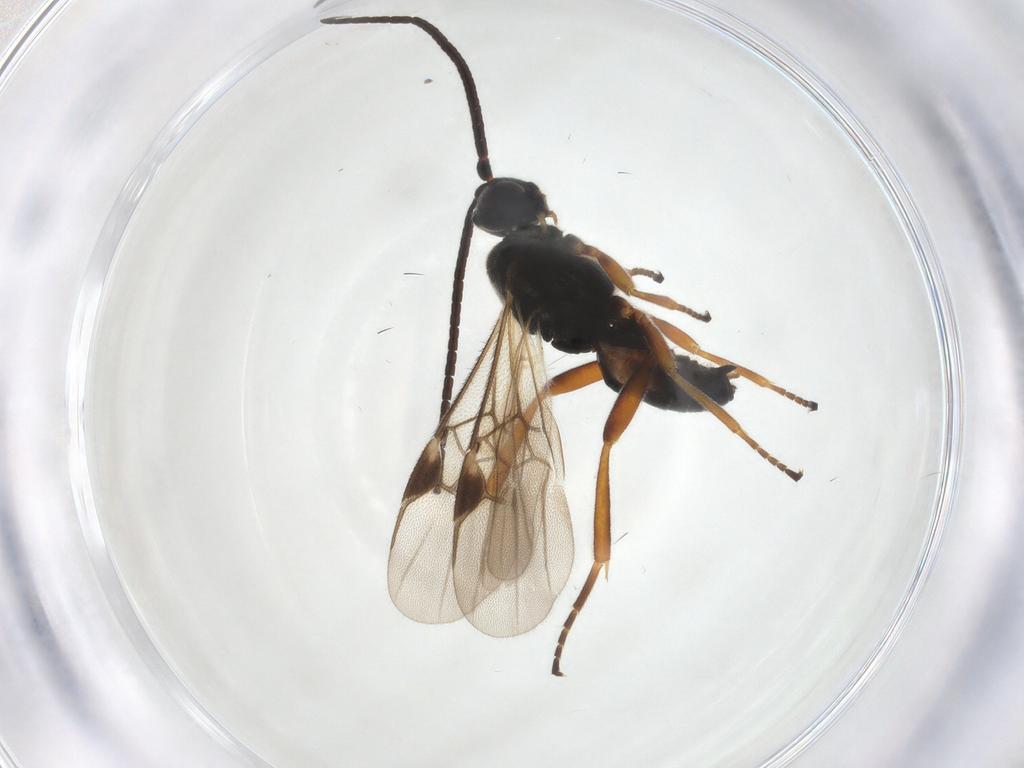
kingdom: Animalia
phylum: Arthropoda
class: Insecta
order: Hymenoptera
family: Braconidae
